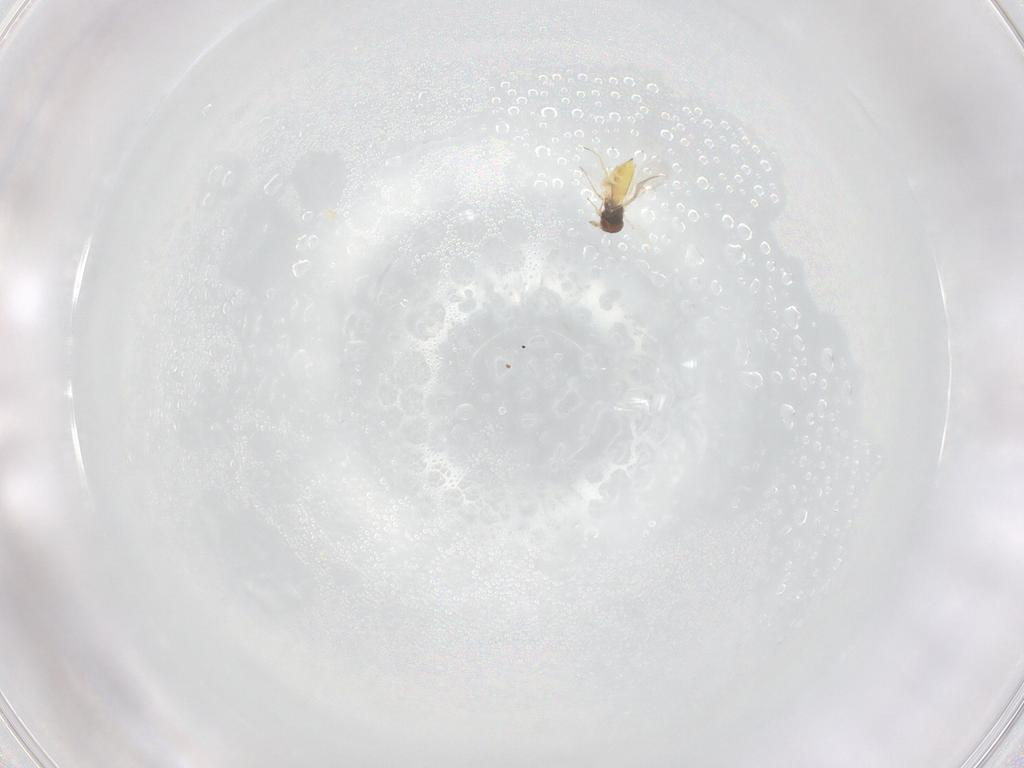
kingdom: Animalia
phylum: Arthropoda
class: Insecta
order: Hymenoptera
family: Trichogrammatidae
